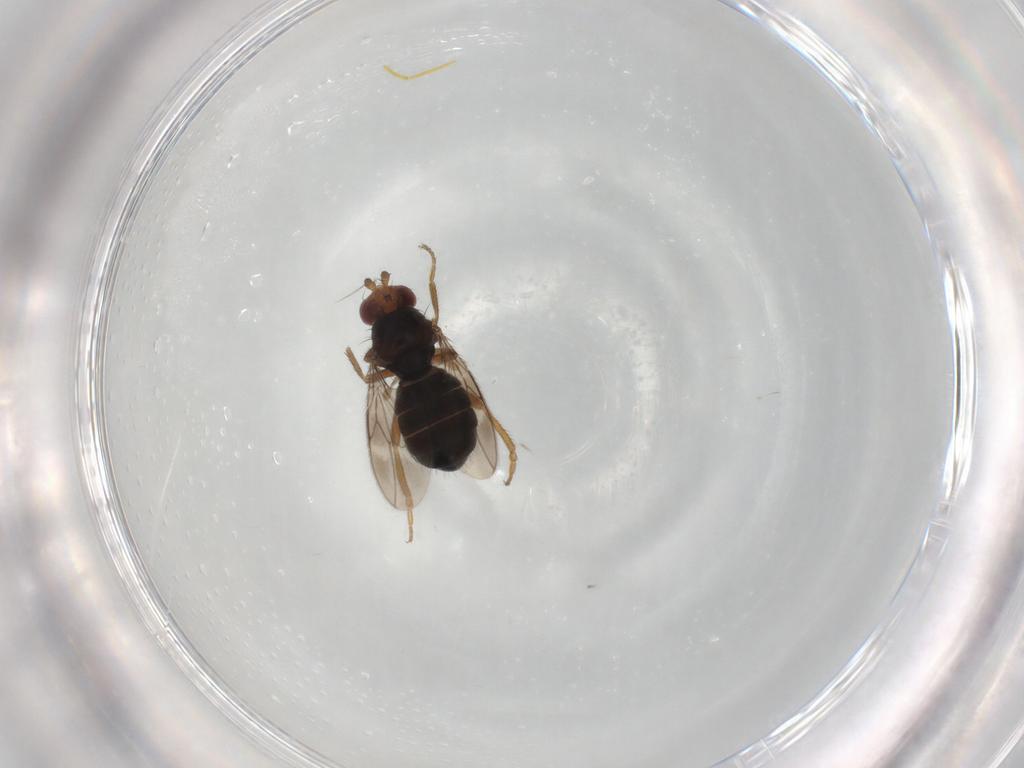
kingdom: Animalia
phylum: Arthropoda
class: Insecta
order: Diptera
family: Sphaeroceridae
